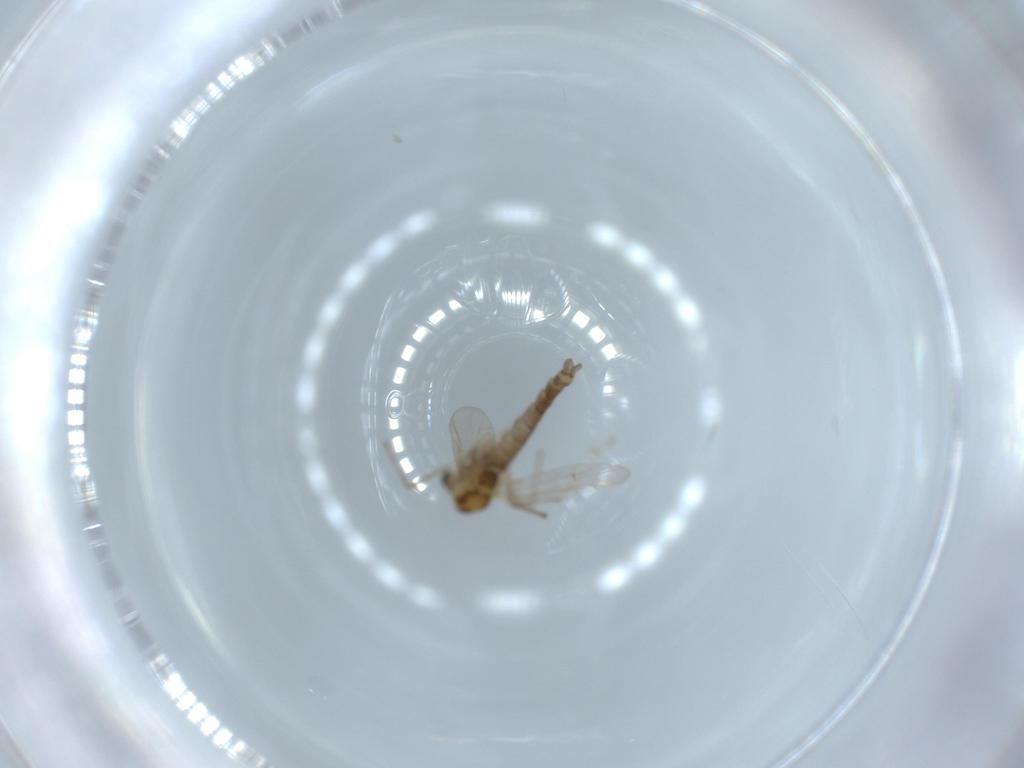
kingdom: Animalia
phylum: Arthropoda
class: Insecta
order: Diptera
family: Chironomidae
